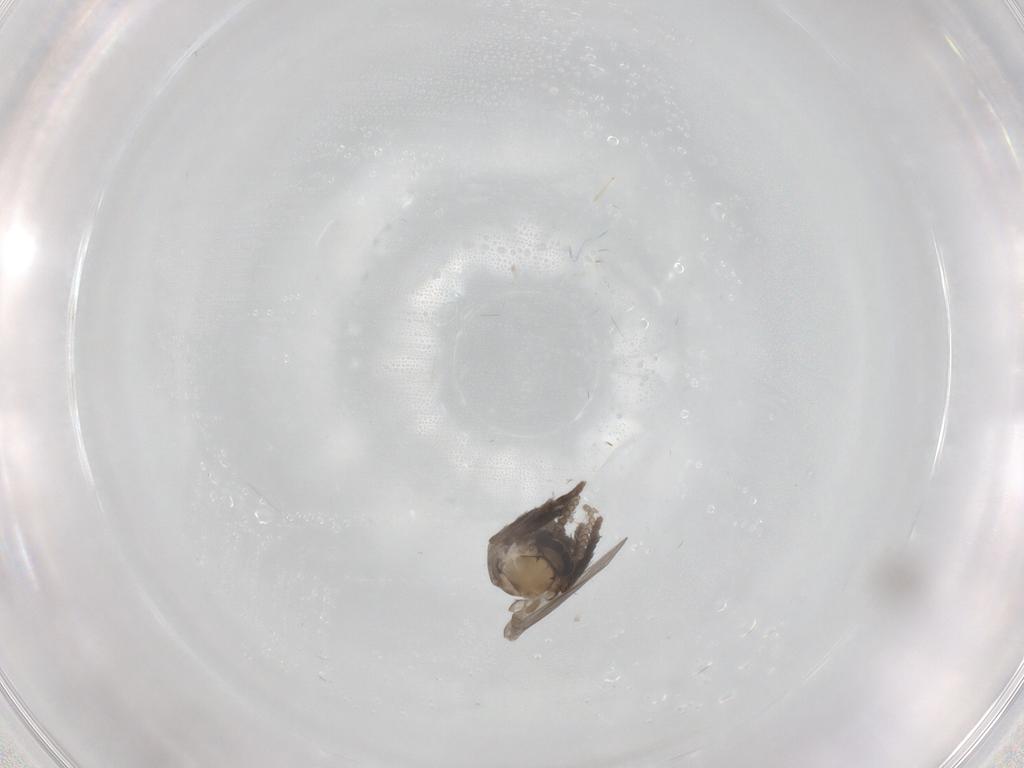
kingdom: Animalia
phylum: Arthropoda
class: Insecta
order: Diptera
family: Psychodidae
